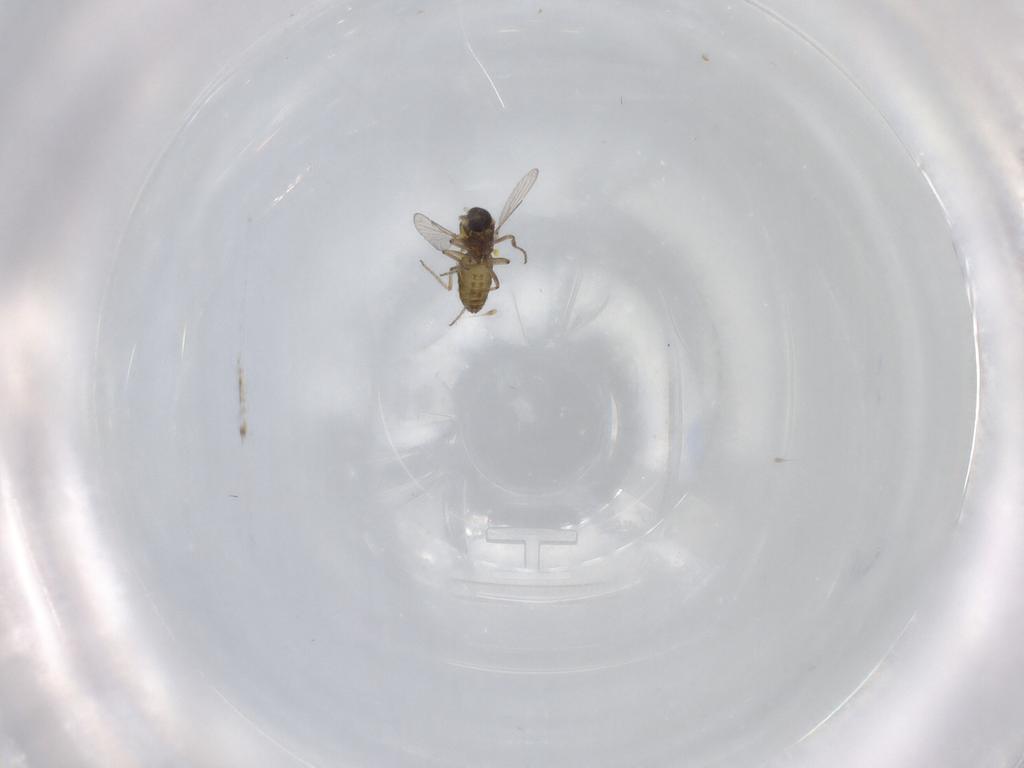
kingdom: Animalia
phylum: Arthropoda
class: Insecta
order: Diptera
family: Ceratopogonidae
